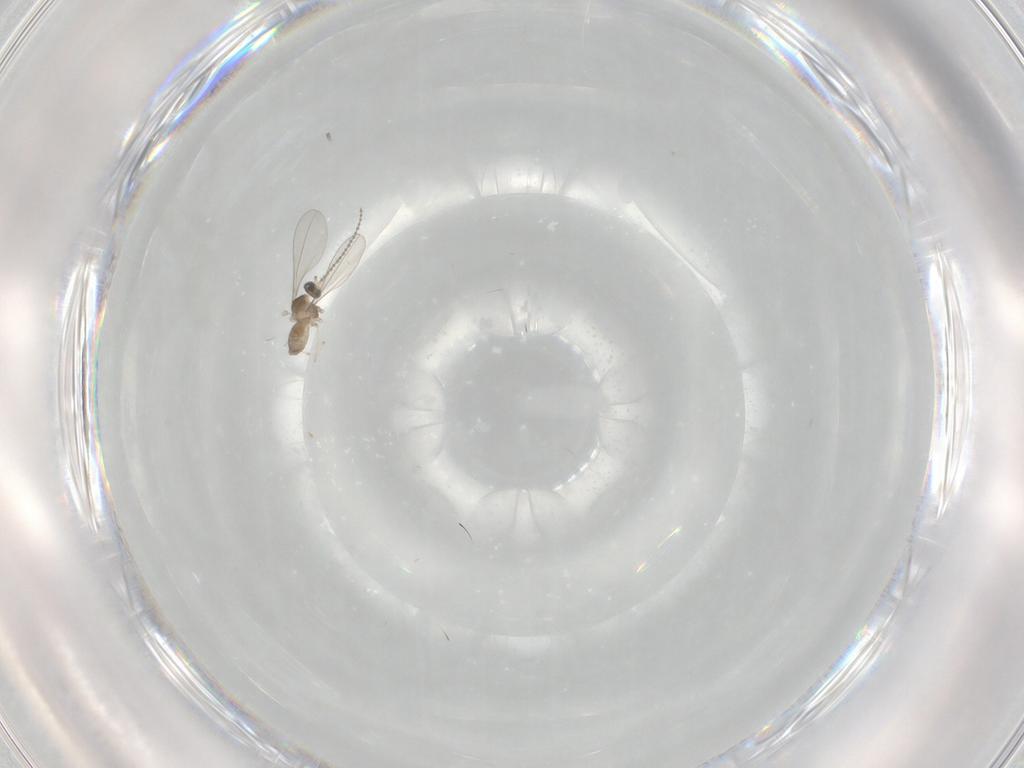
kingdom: Animalia
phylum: Arthropoda
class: Insecta
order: Diptera
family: Cecidomyiidae
